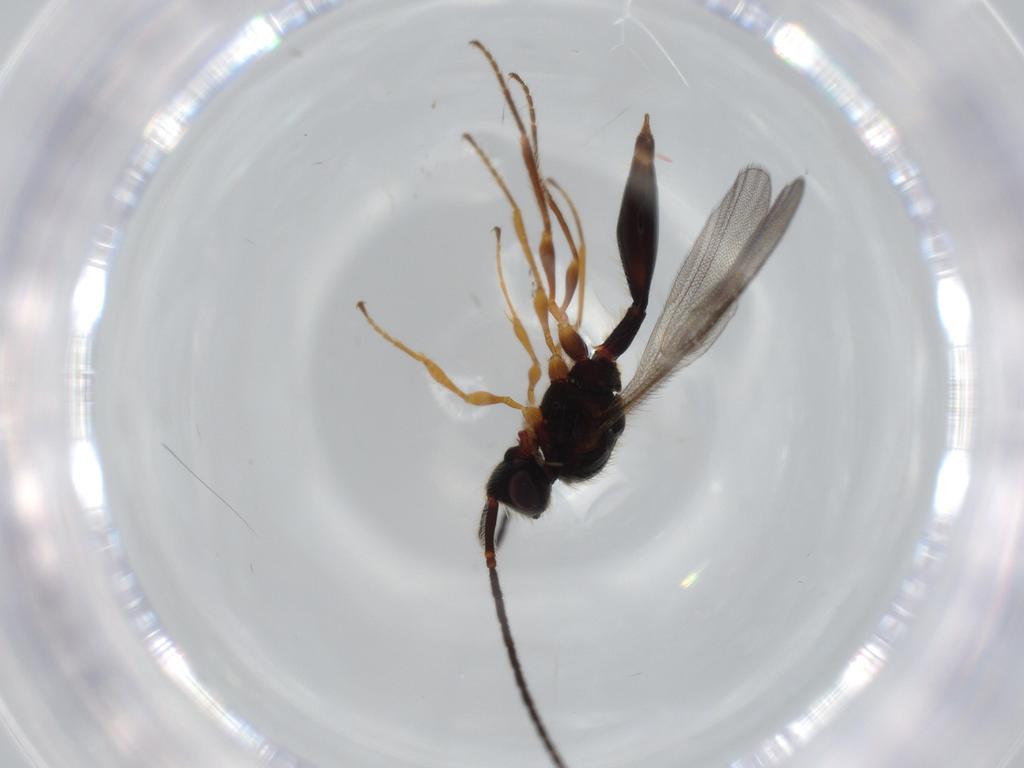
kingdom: Animalia
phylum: Arthropoda
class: Insecta
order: Hymenoptera
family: Diapriidae
